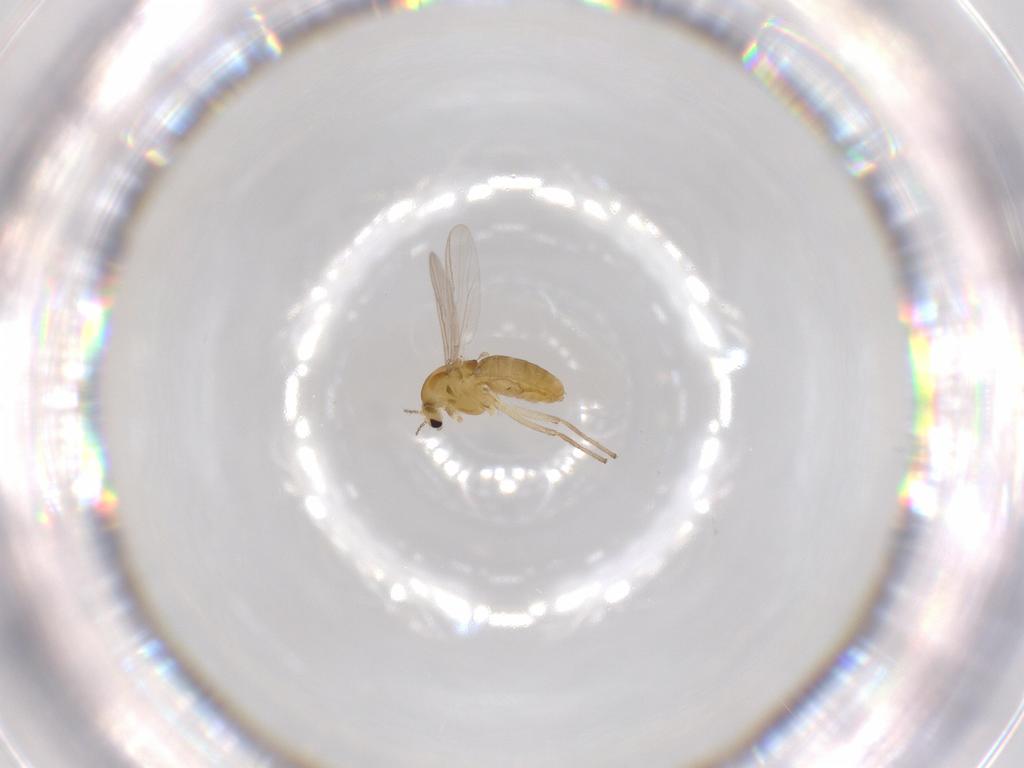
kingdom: Animalia
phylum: Arthropoda
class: Insecta
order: Diptera
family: Chironomidae
